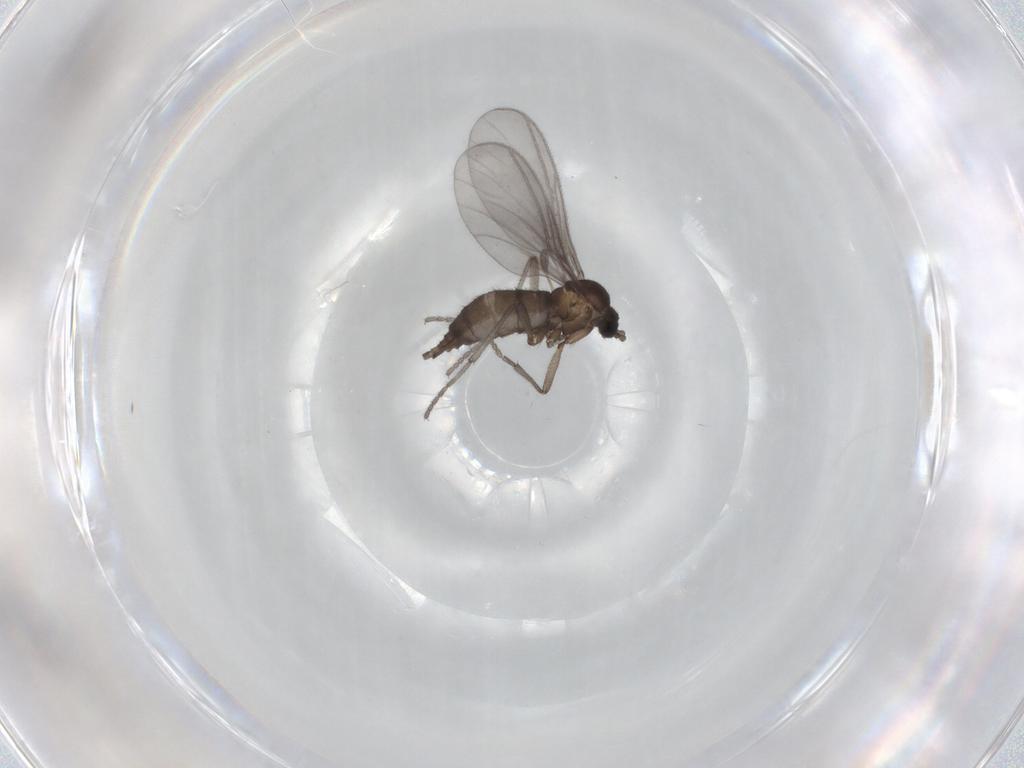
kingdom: Animalia
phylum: Arthropoda
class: Insecta
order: Diptera
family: Sciaridae
